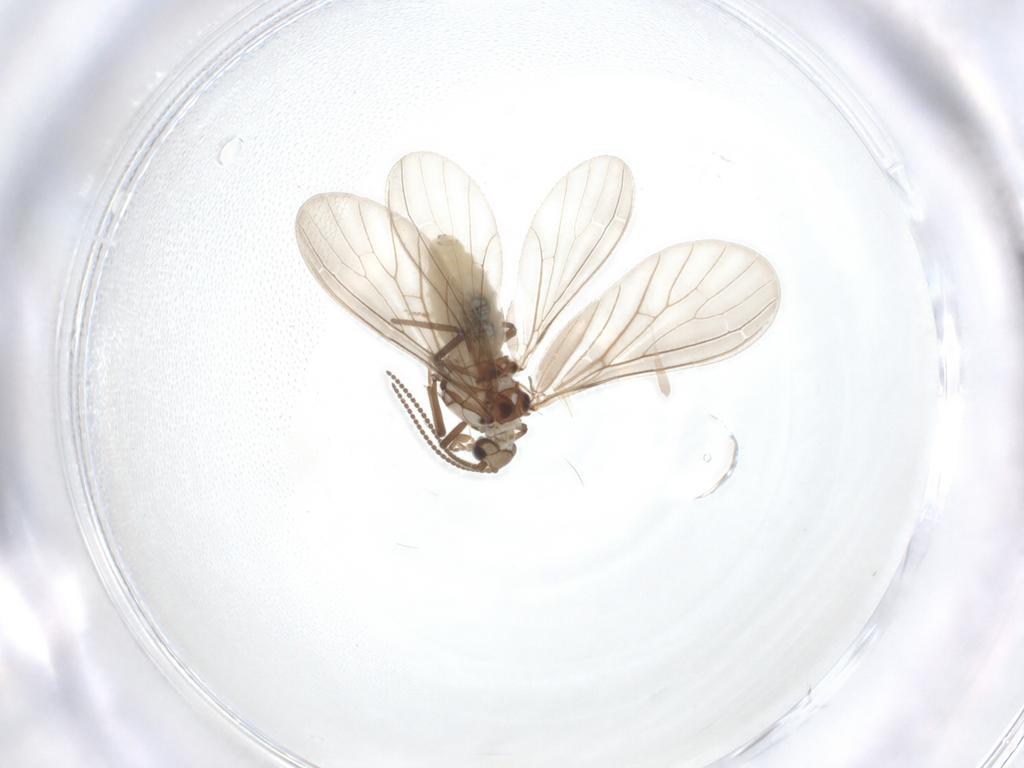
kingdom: Animalia
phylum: Arthropoda
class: Insecta
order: Neuroptera
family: Coniopterygidae
